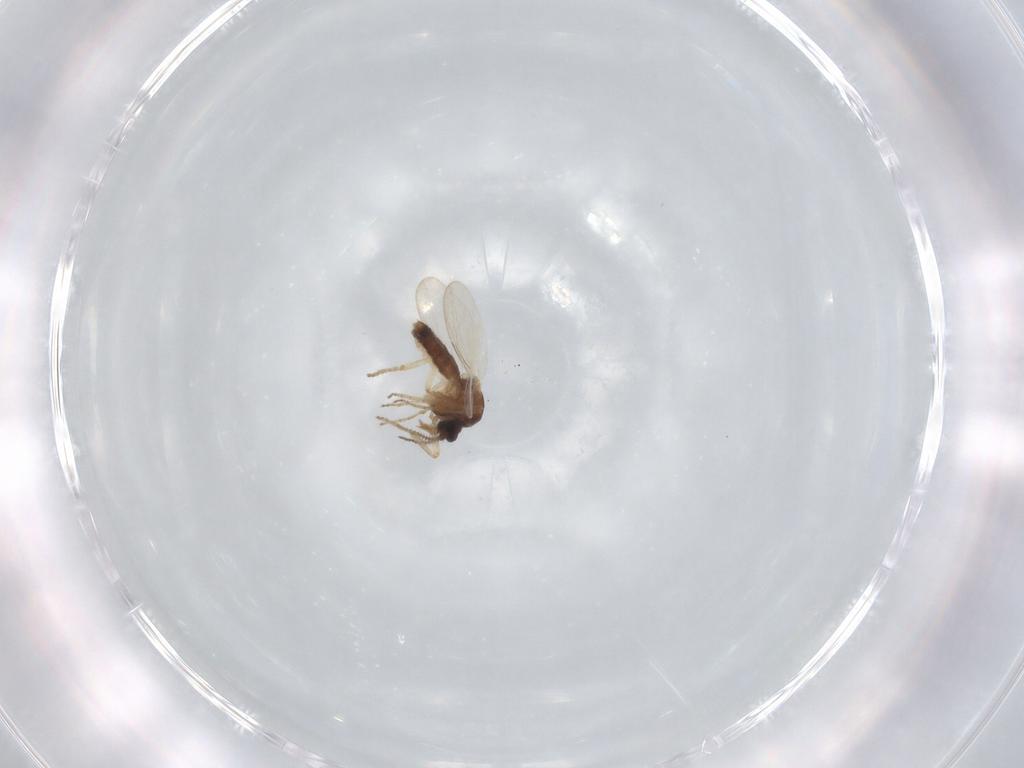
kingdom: Animalia
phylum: Arthropoda
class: Insecta
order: Diptera
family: Ceratopogonidae
